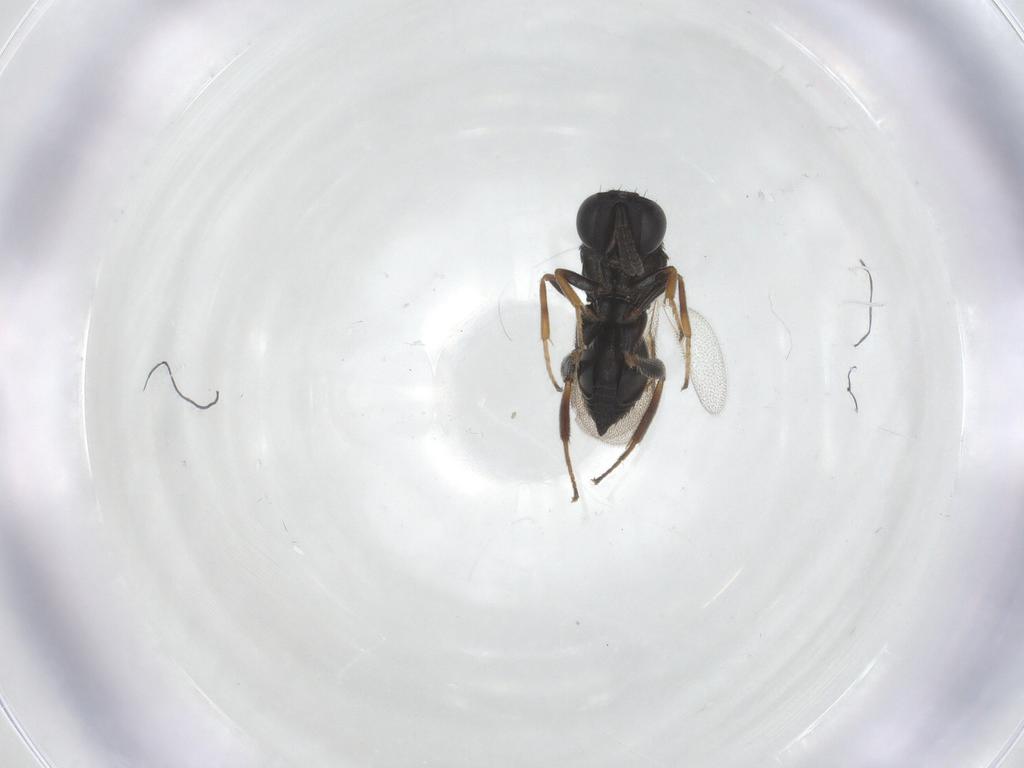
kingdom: Animalia
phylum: Arthropoda
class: Insecta
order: Hymenoptera
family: Pteromalidae
